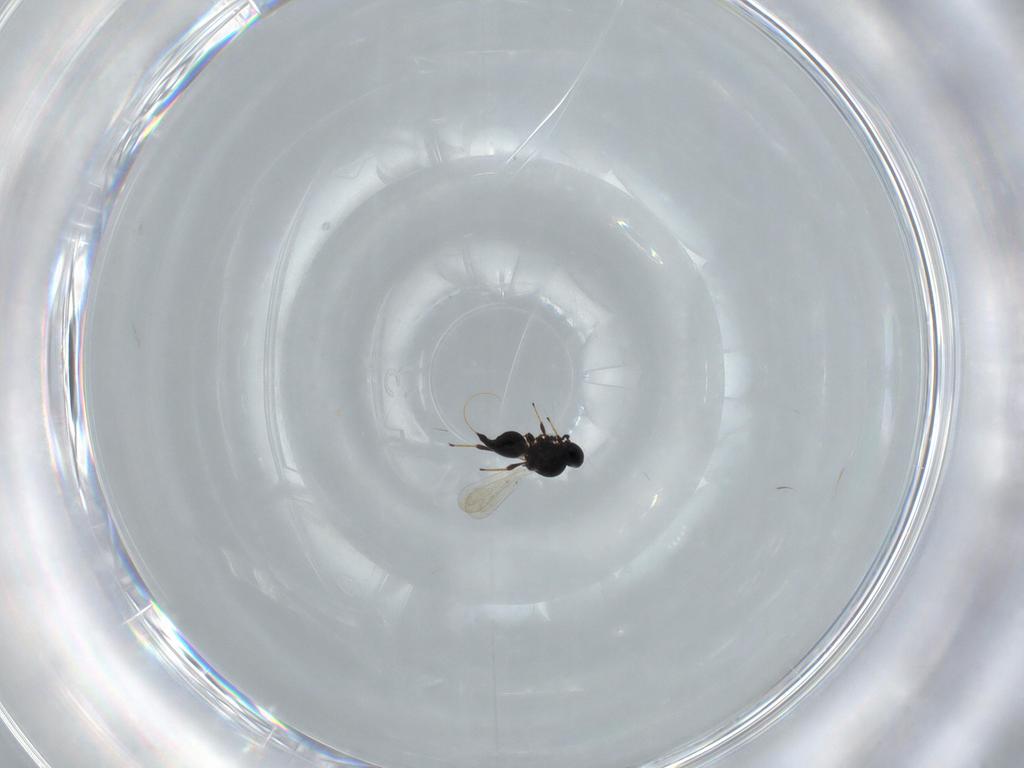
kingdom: Animalia
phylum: Arthropoda
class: Insecta
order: Hymenoptera
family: Platygastridae
